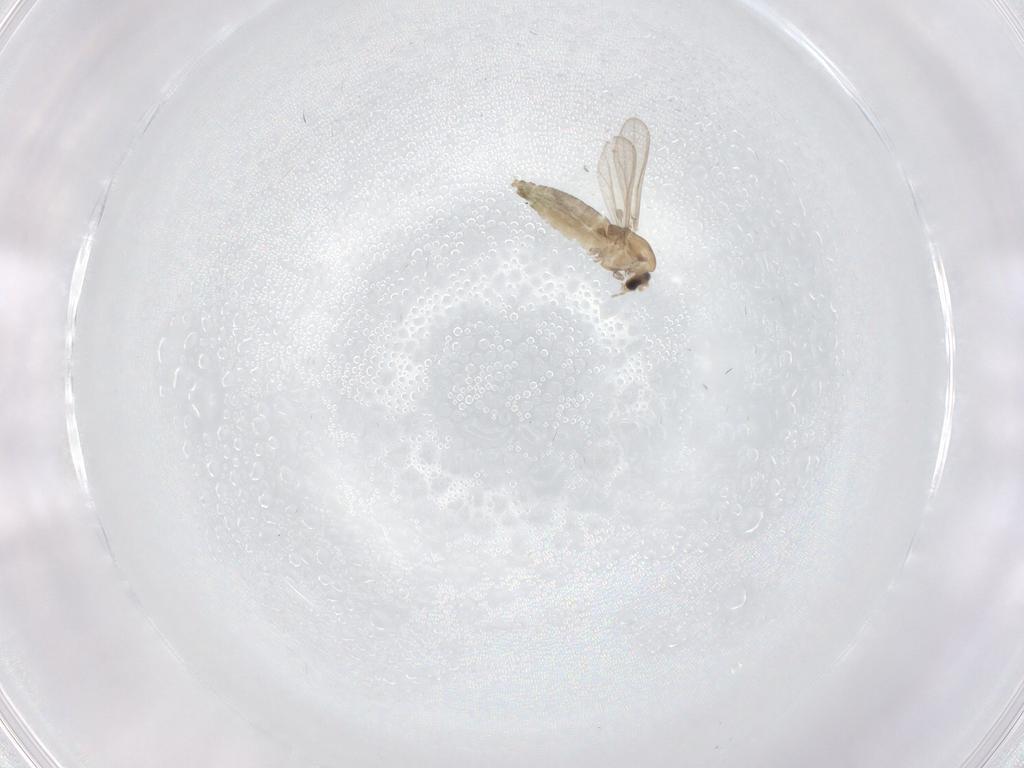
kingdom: Animalia
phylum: Arthropoda
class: Insecta
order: Diptera
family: Chironomidae
